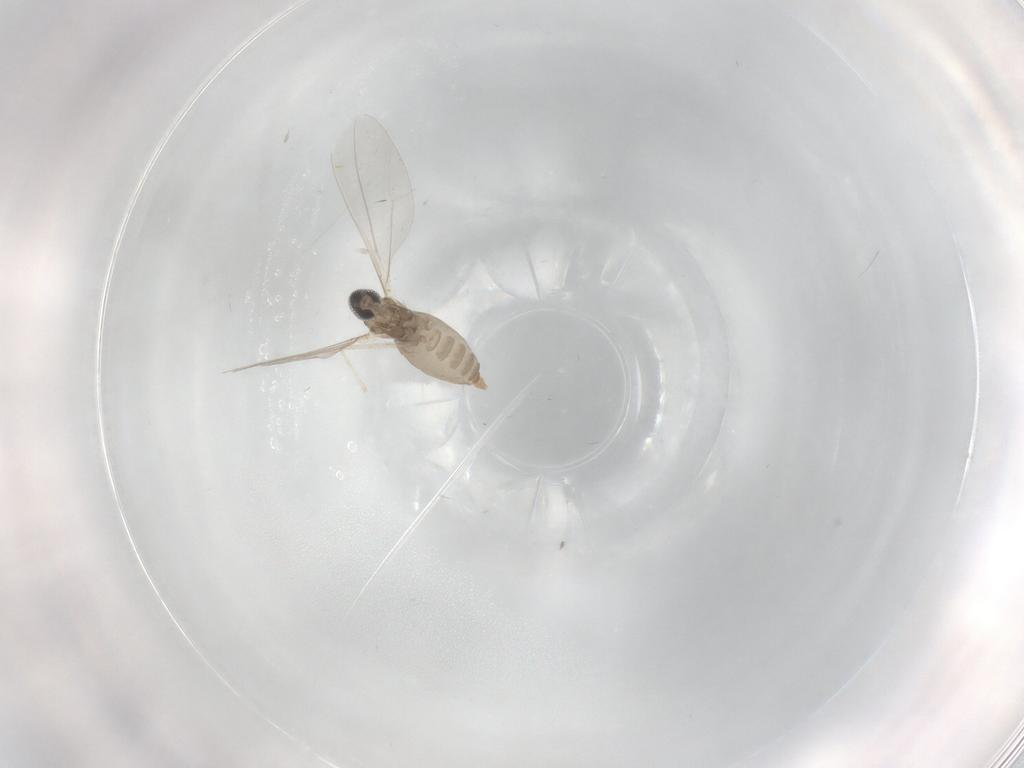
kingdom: Animalia
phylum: Arthropoda
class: Insecta
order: Diptera
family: Cecidomyiidae
